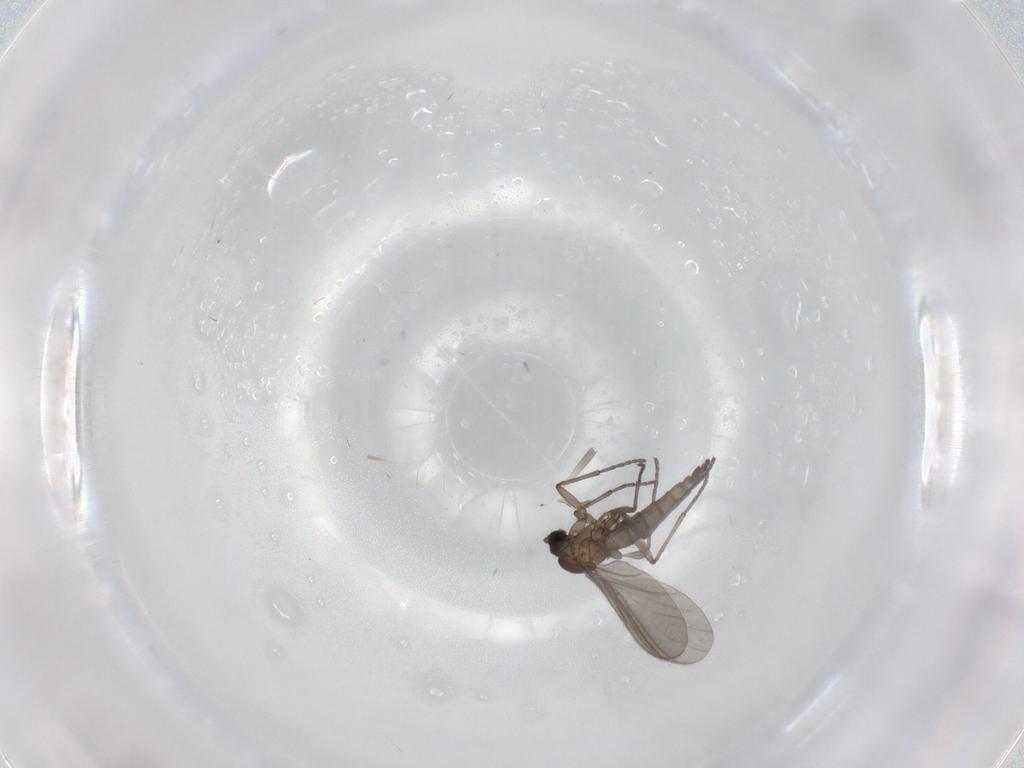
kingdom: Animalia
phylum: Arthropoda
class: Insecta
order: Diptera
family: Sciaridae
